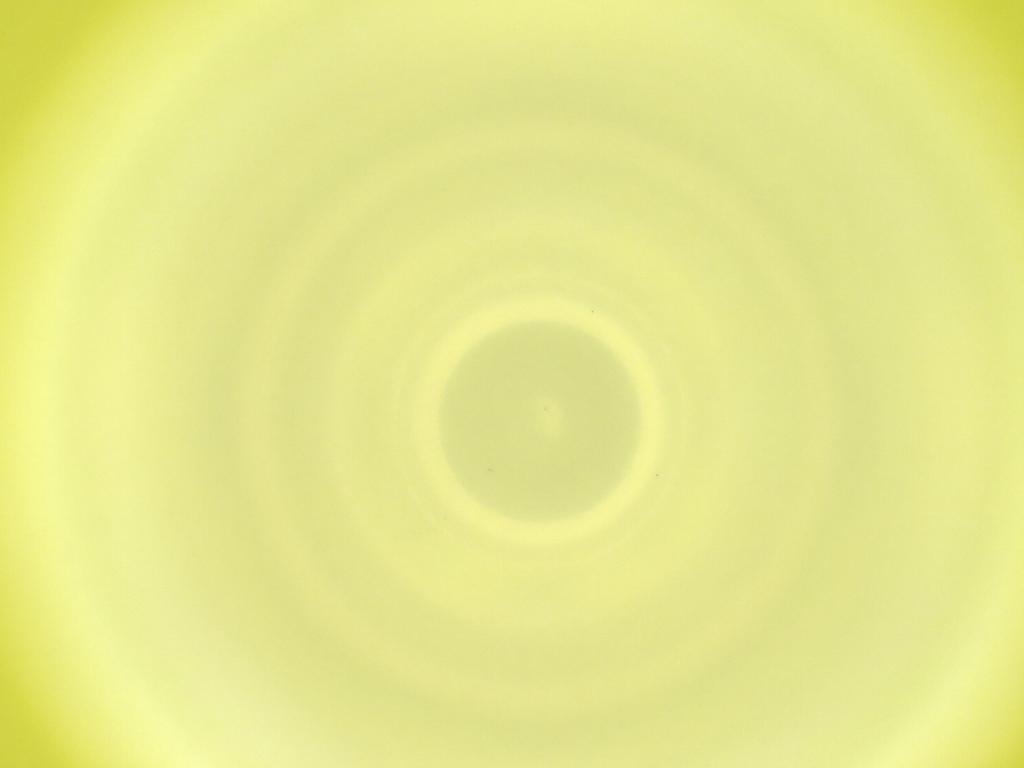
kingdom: Animalia
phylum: Arthropoda
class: Insecta
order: Diptera
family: Cecidomyiidae
